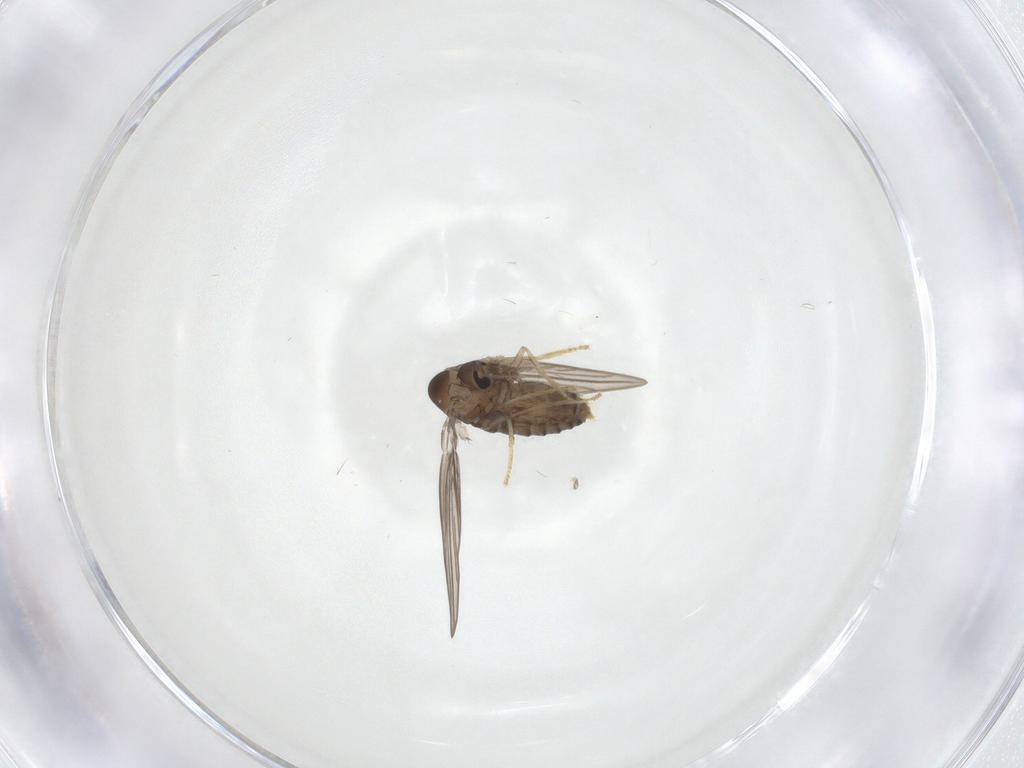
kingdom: Animalia
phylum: Arthropoda
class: Insecta
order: Diptera
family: Psychodidae
